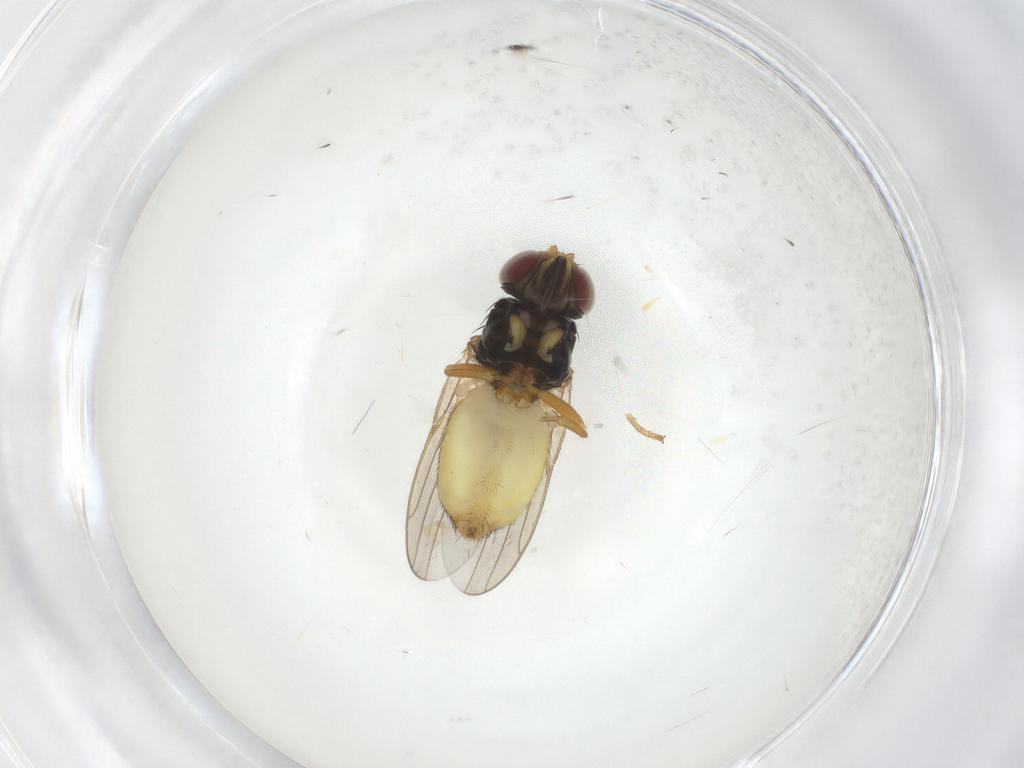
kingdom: Animalia
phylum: Arthropoda
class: Insecta
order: Diptera
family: Chloropidae
